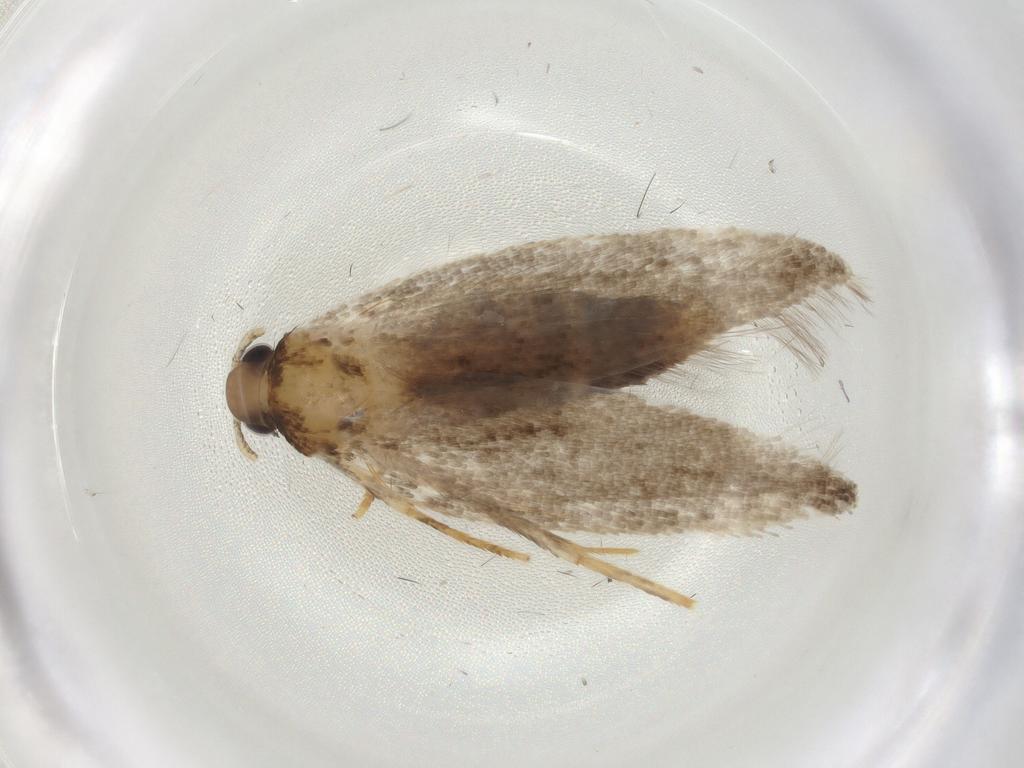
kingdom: Animalia
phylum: Arthropoda
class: Insecta
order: Lepidoptera
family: Autostichidae
